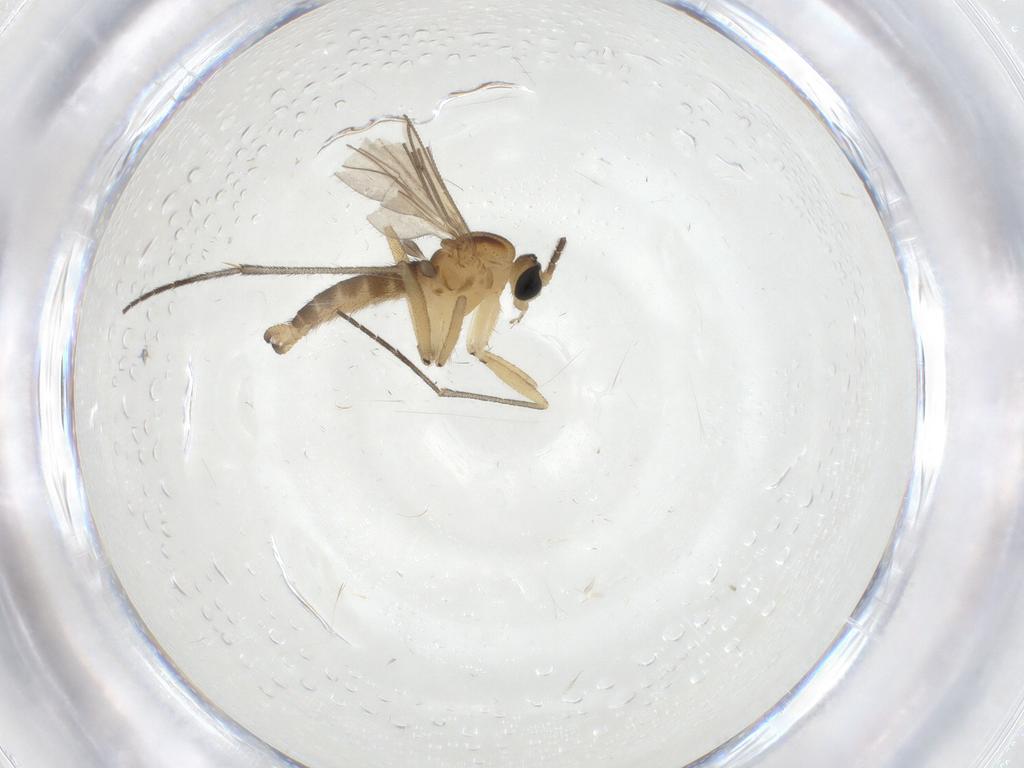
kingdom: Animalia
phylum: Arthropoda
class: Insecta
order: Diptera
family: Sciaridae
